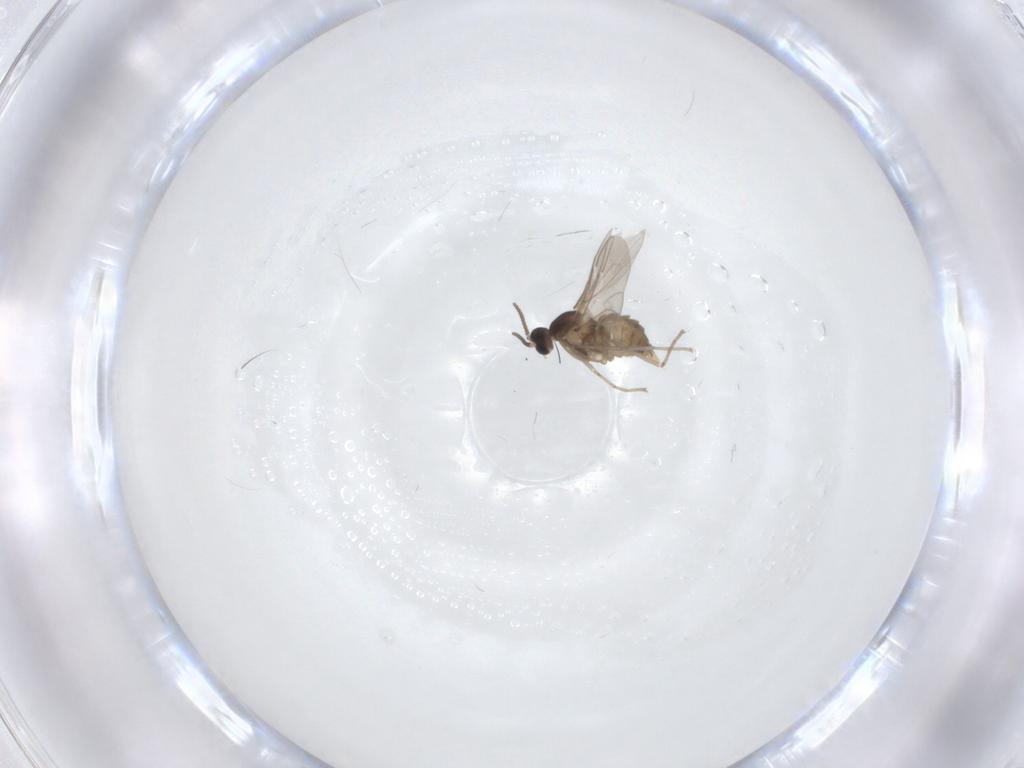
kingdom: Animalia
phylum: Arthropoda
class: Insecta
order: Diptera
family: Cecidomyiidae
